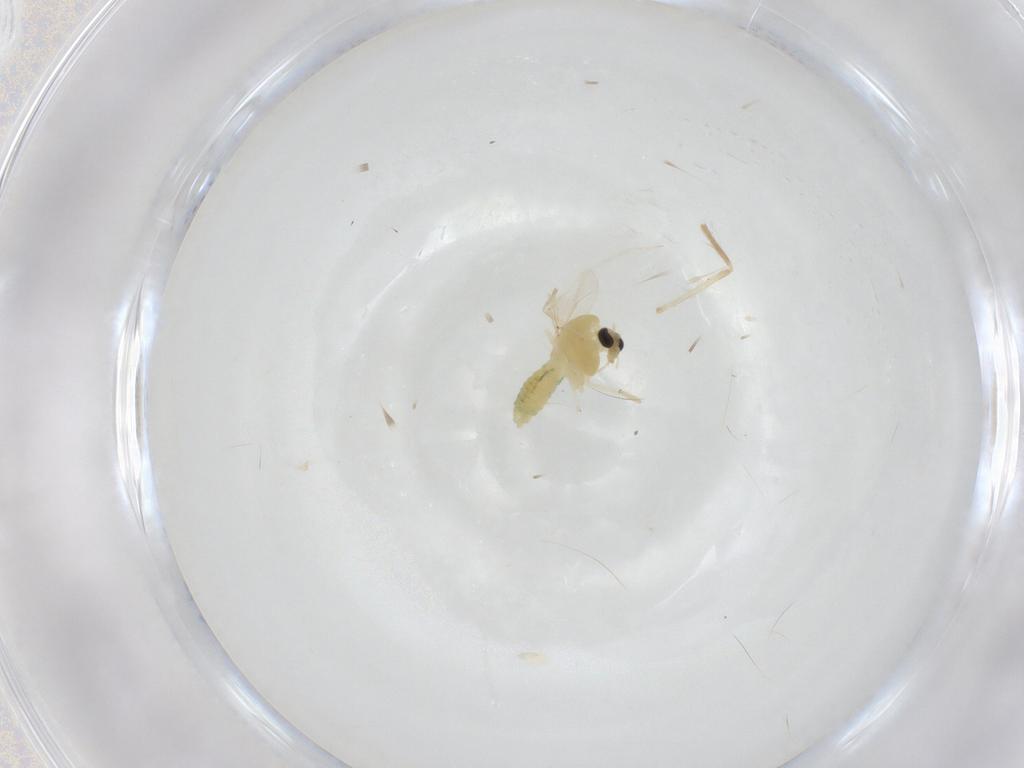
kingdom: Animalia
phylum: Arthropoda
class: Insecta
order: Diptera
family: Chironomidae
